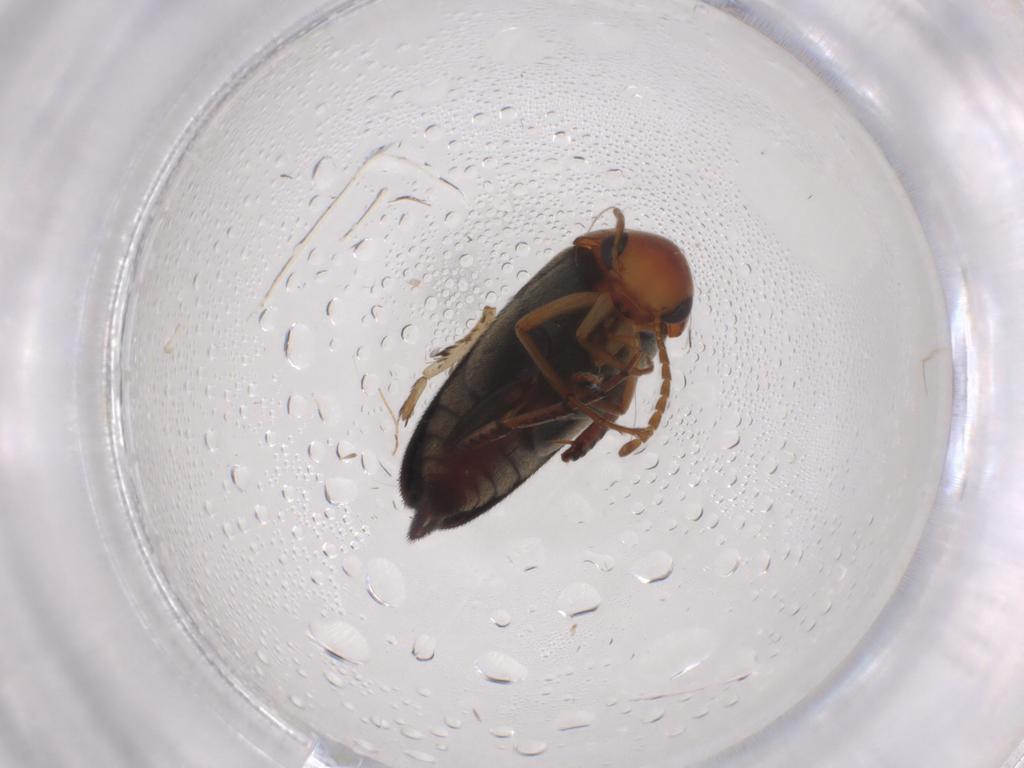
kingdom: Animalia
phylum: Arthropoda
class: Insecta
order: Coleoptera
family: Mordellidae
